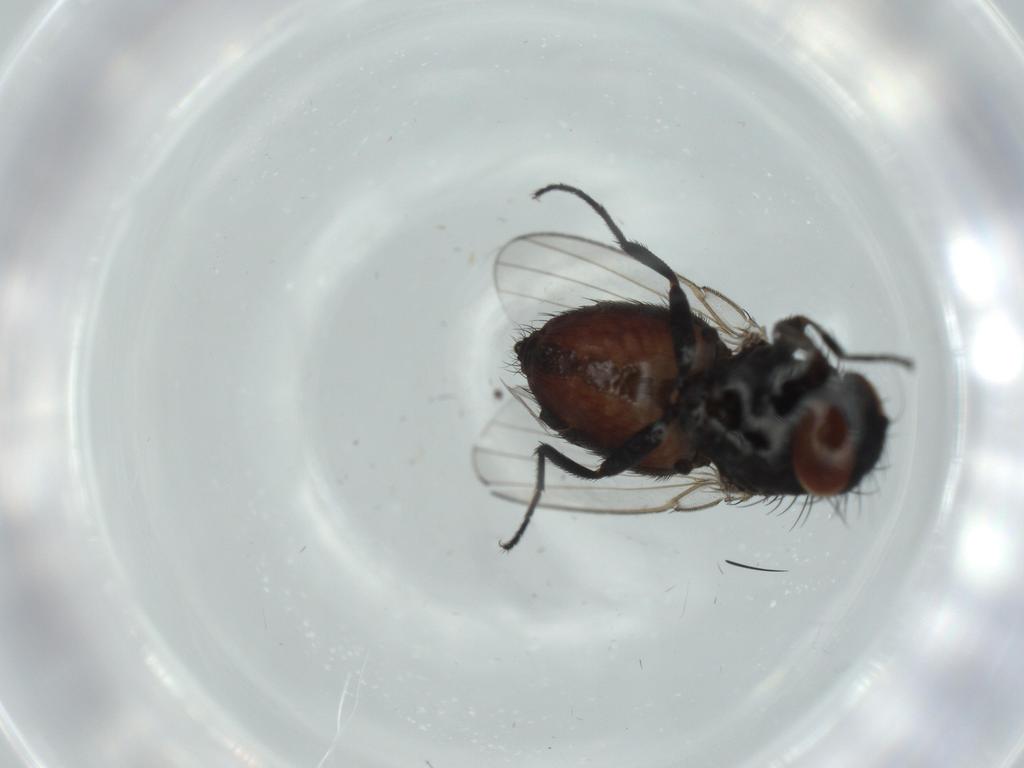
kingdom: Animalia
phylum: Arthropoda
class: Insecta
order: Diptera
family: Milichiidae
